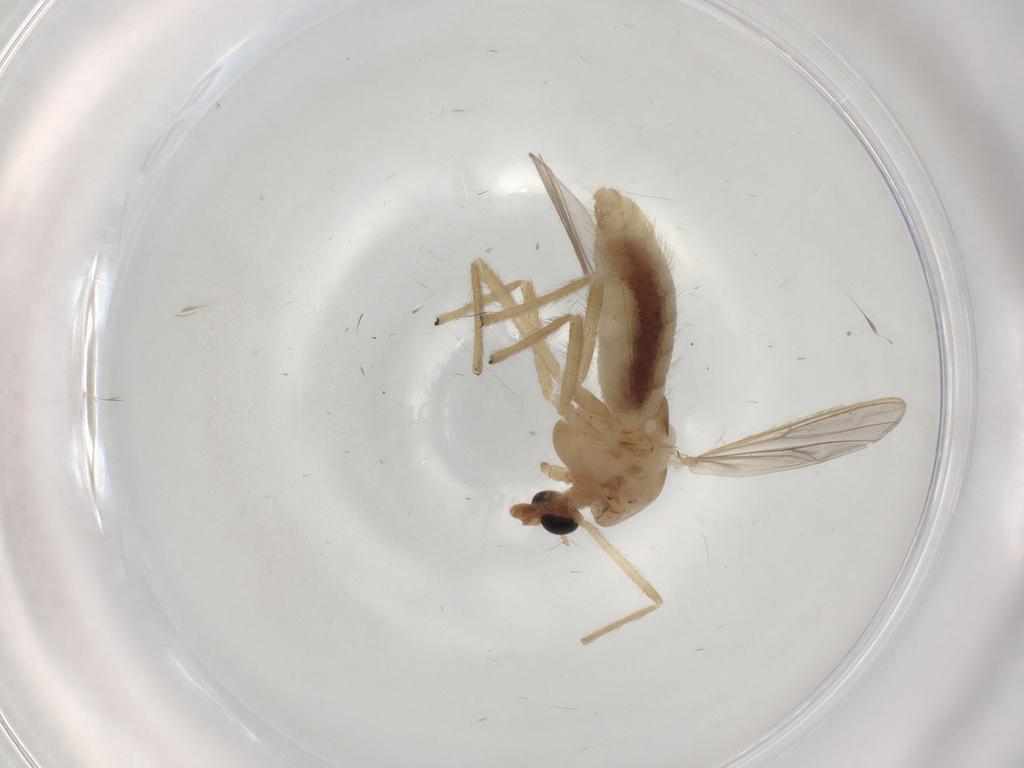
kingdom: Animalia
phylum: Arthropoda
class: Insecta
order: Diptera
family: Chironomidae
